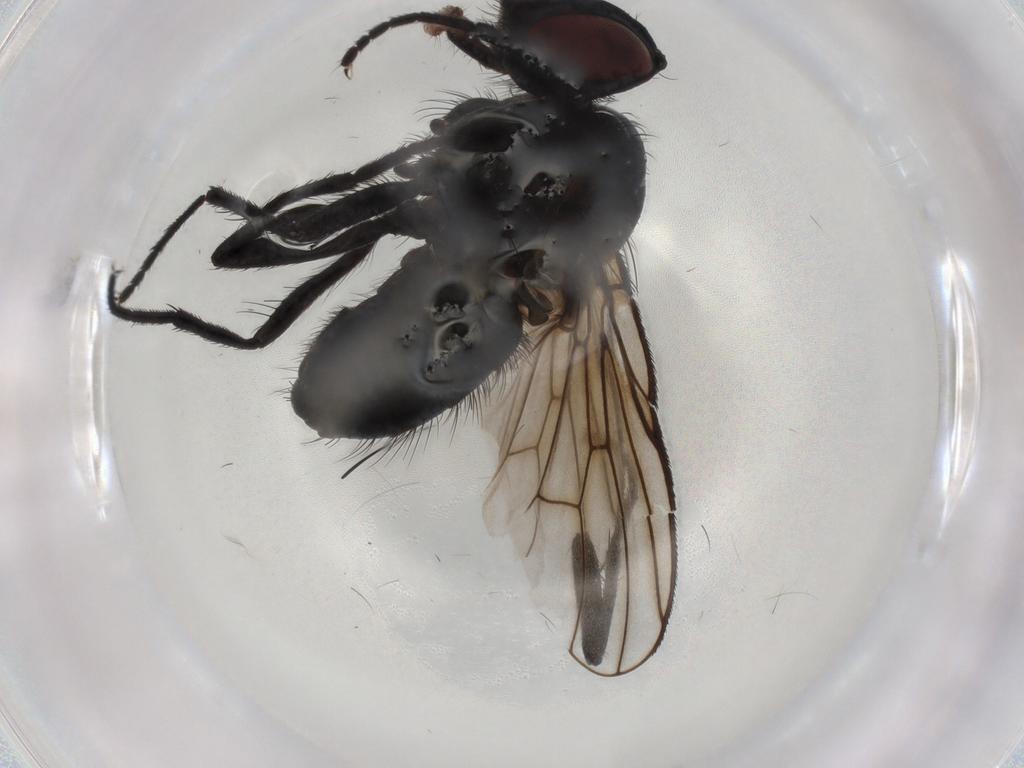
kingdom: Animalia
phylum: Arthropoda
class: Insecta
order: Diptera
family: Muscidae
